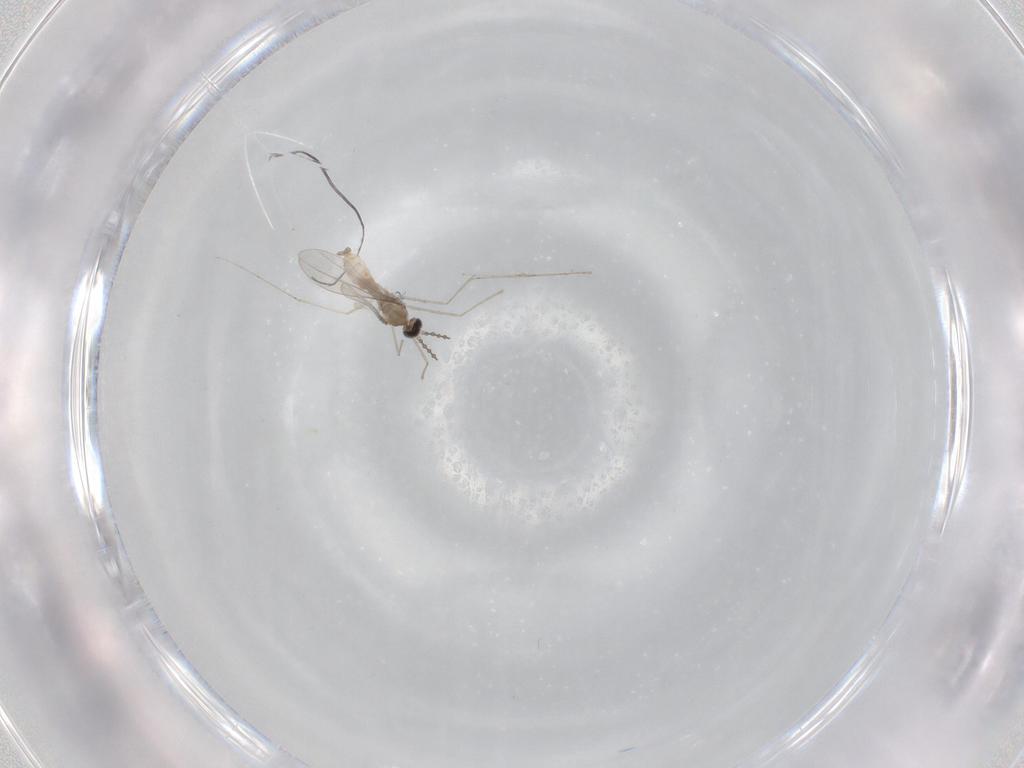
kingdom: Animalia
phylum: Arthropoda
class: Insecta
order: Diptera
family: Cecidomyiidae
